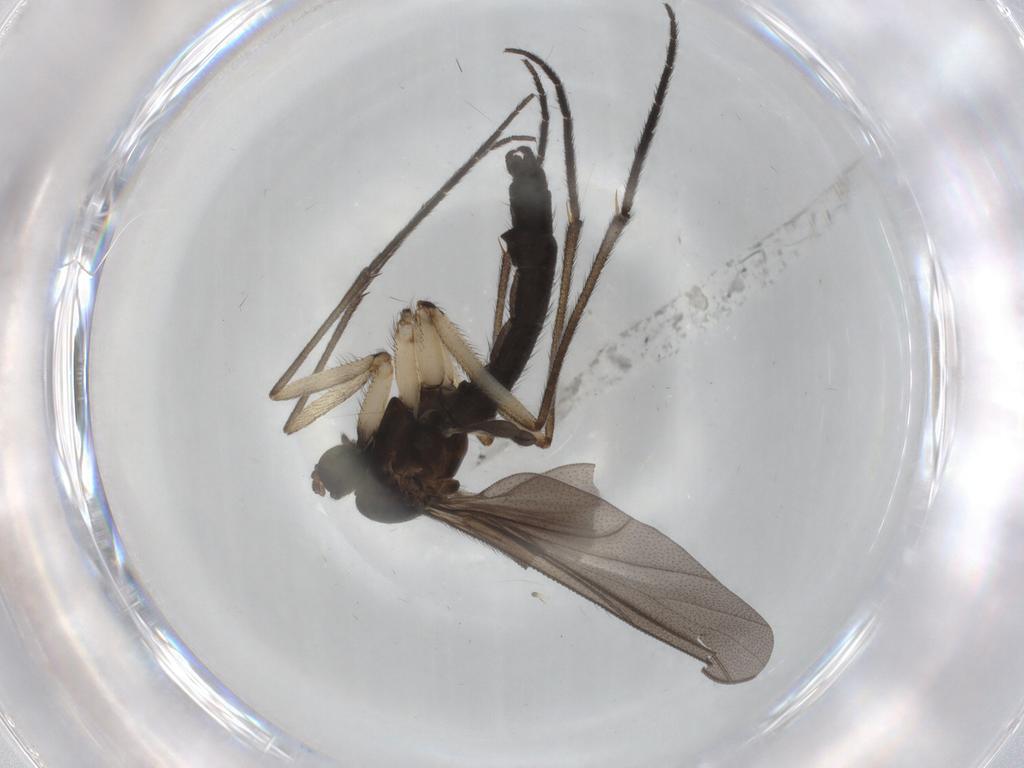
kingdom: Animalia
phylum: Arthropoda
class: Insecta
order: Diptera
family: Sciaridae
